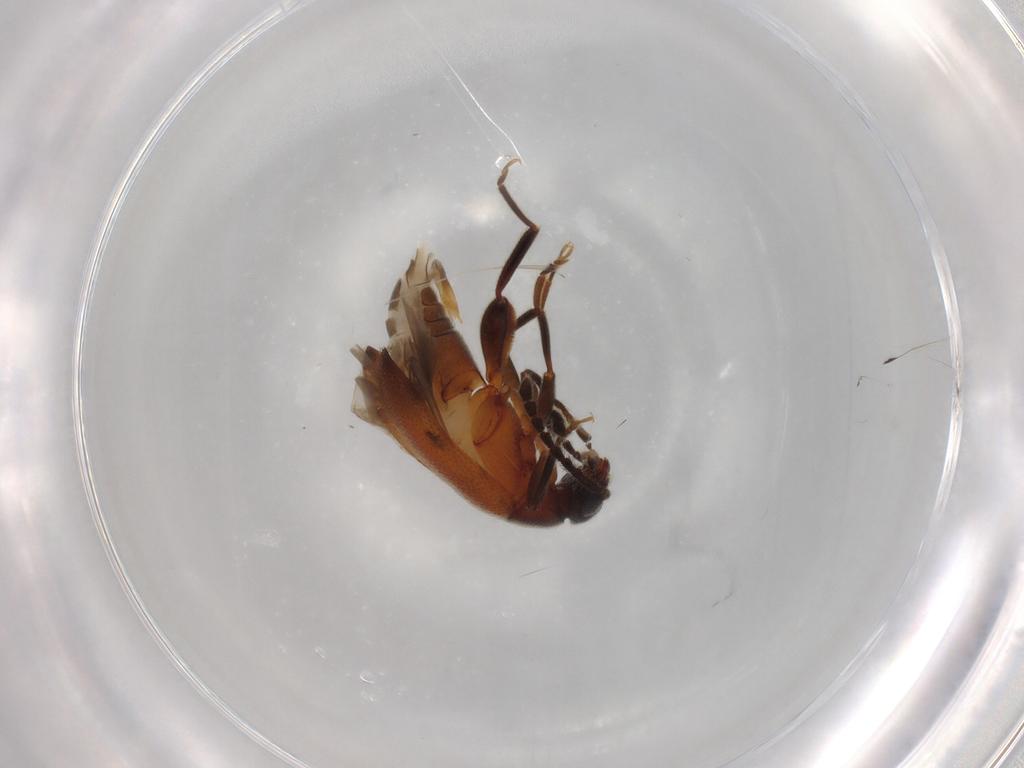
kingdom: Animalia
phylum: Arthropoda
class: Insecta
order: Coleoptera
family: Aderidae
